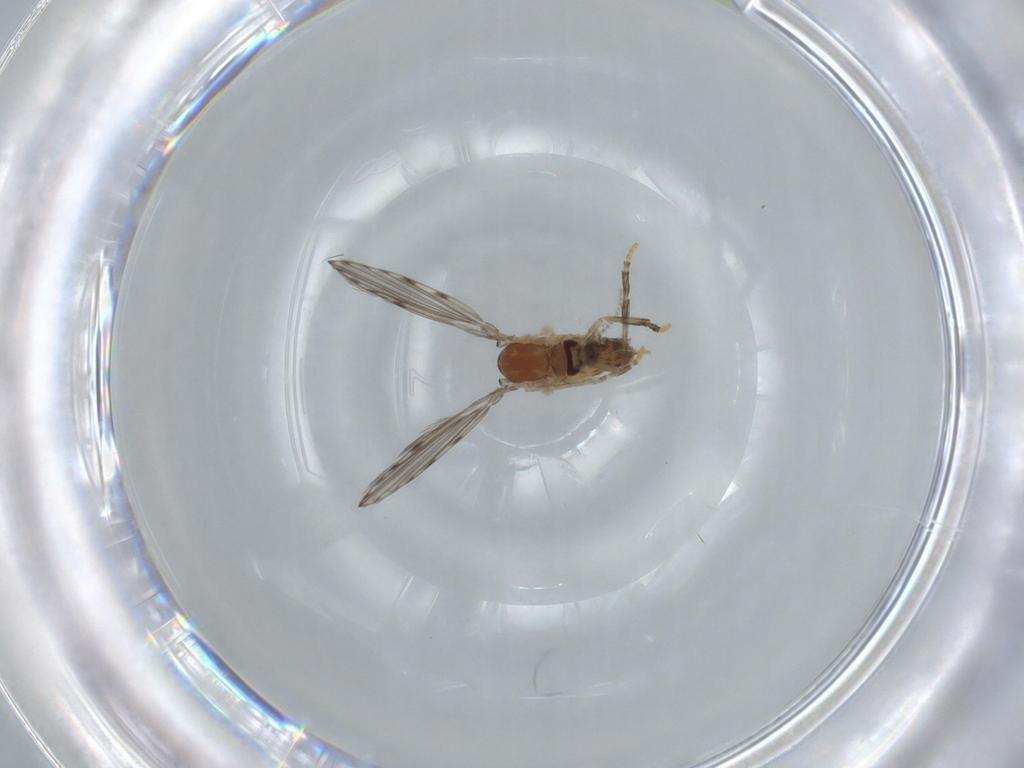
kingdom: Animalia
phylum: Arthropoda
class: Insecta
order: Diptera
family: Psychodidae
